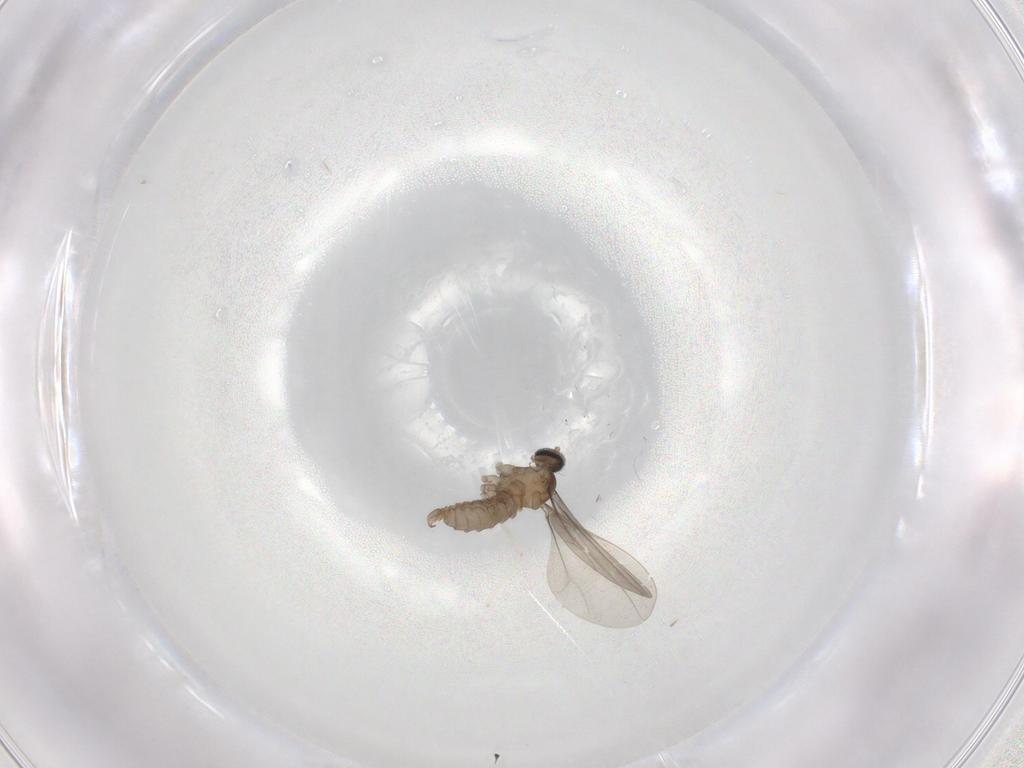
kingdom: Animalia
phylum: Arthropoda
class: Insecta
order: Diptera
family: Cecidomyiidae
